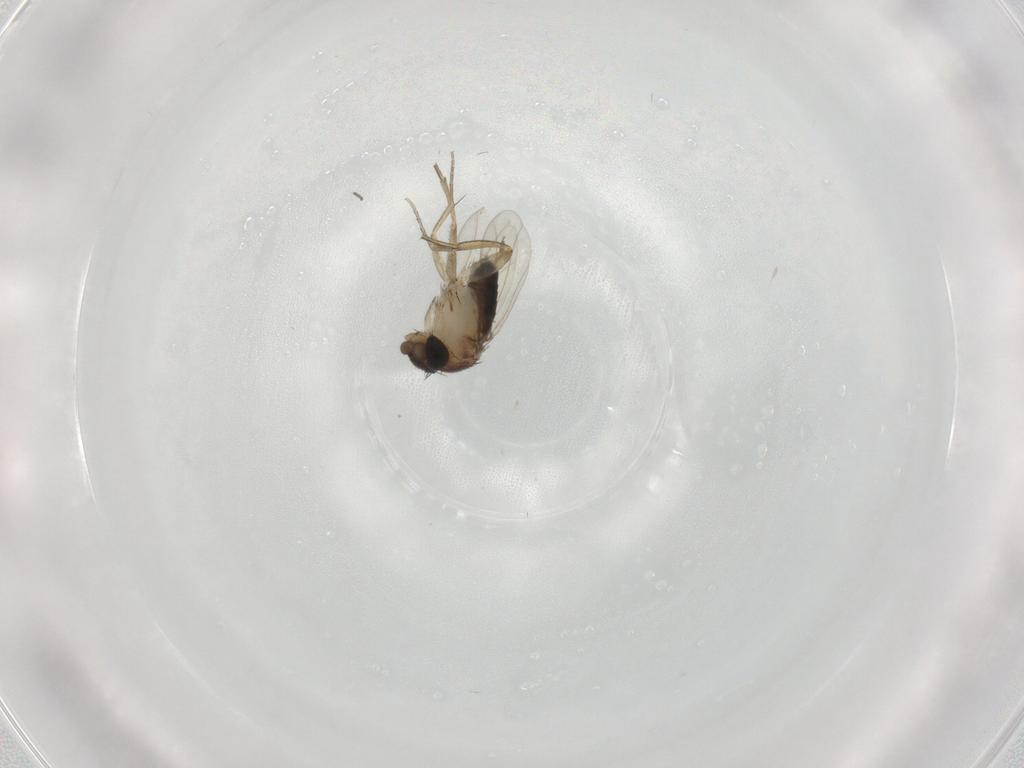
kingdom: Animalia
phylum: Arthropoda
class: Insecta
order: Diptera
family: Cecidomyiidae
